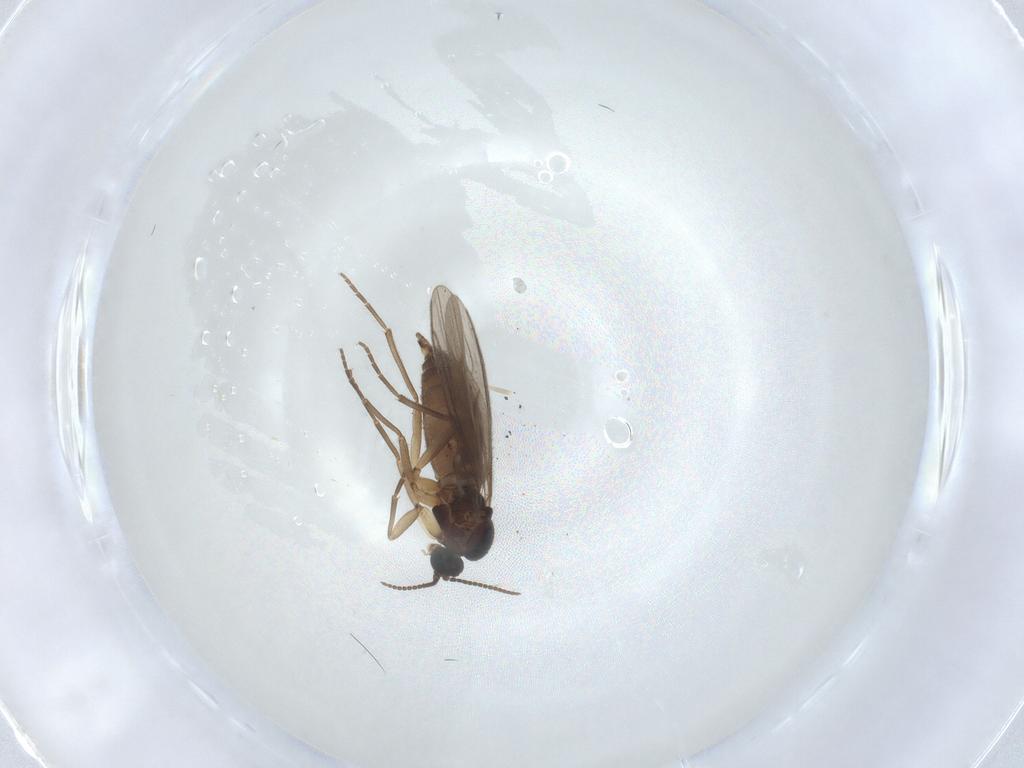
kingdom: Animalia
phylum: Arthropoda
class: Insecta
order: Diptera
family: Sciaridae
